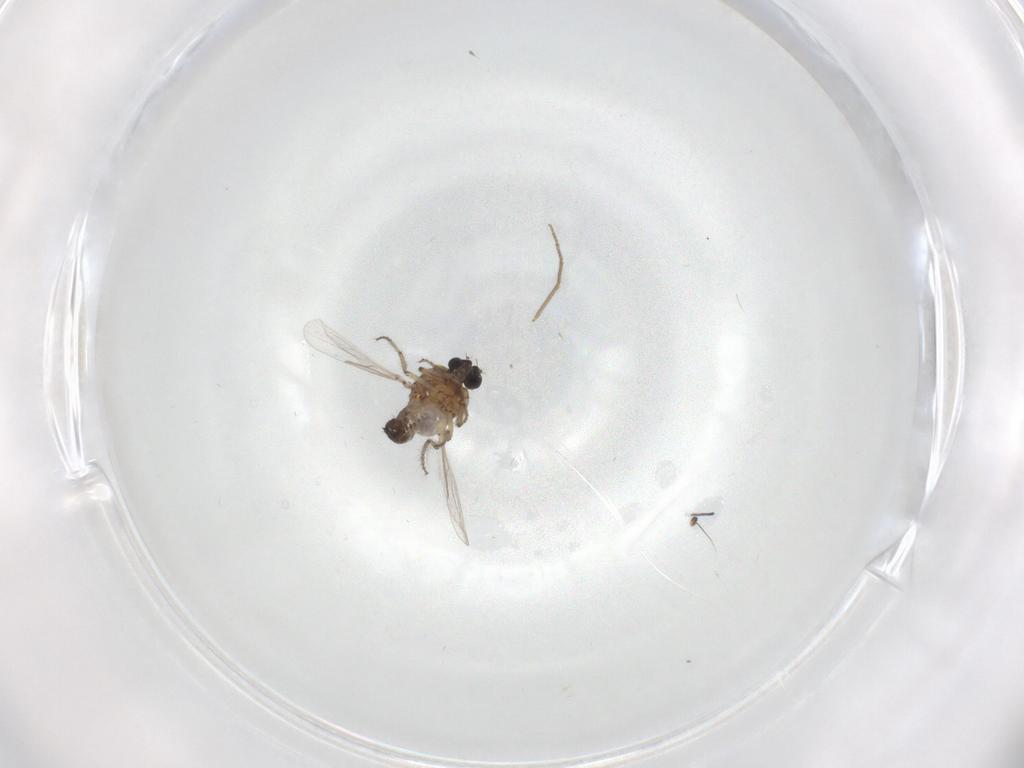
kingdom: Animalia
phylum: Arthropoda
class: Insecta
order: Diptera
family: Ceratopogonidae
